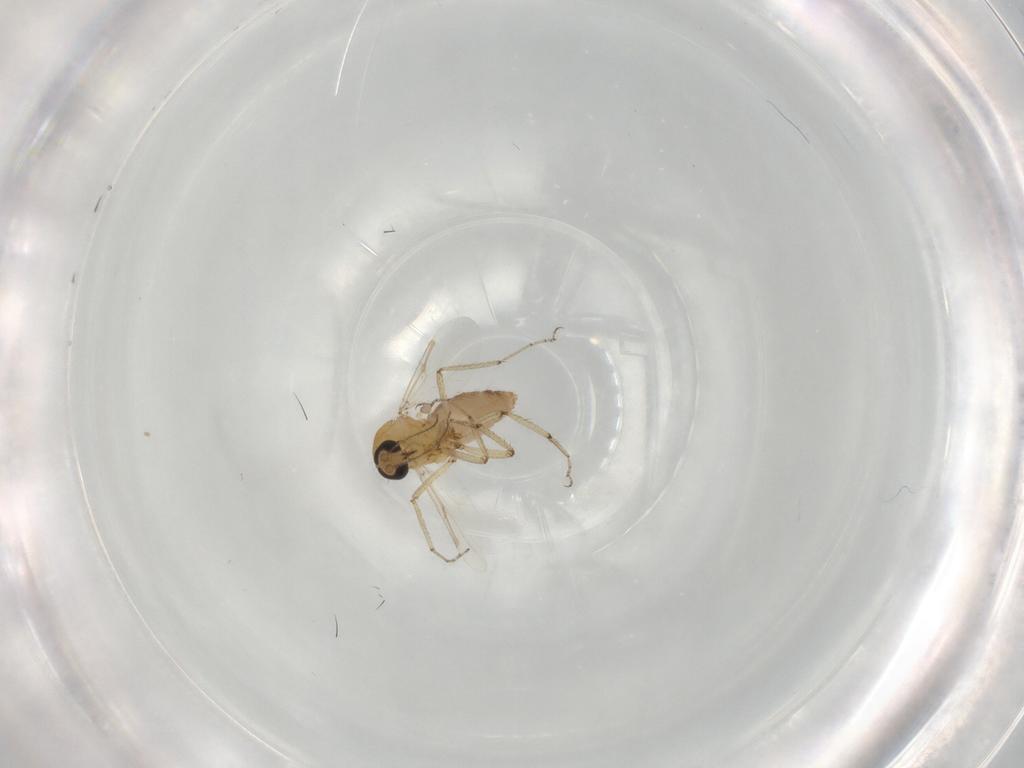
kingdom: Animalia
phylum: Arthropoda
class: Insecta
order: Diptera
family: Ceratopogonidae
